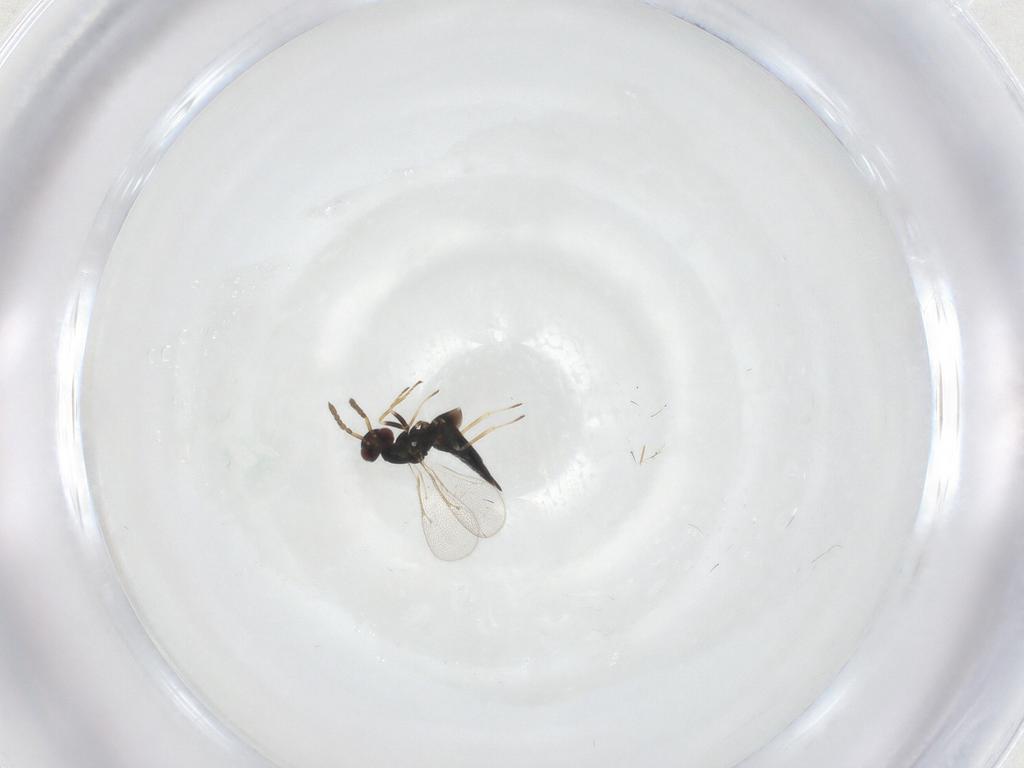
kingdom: Animalia
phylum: Arthropoda
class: Insecta
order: Hymenoptera
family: Eulophidae
